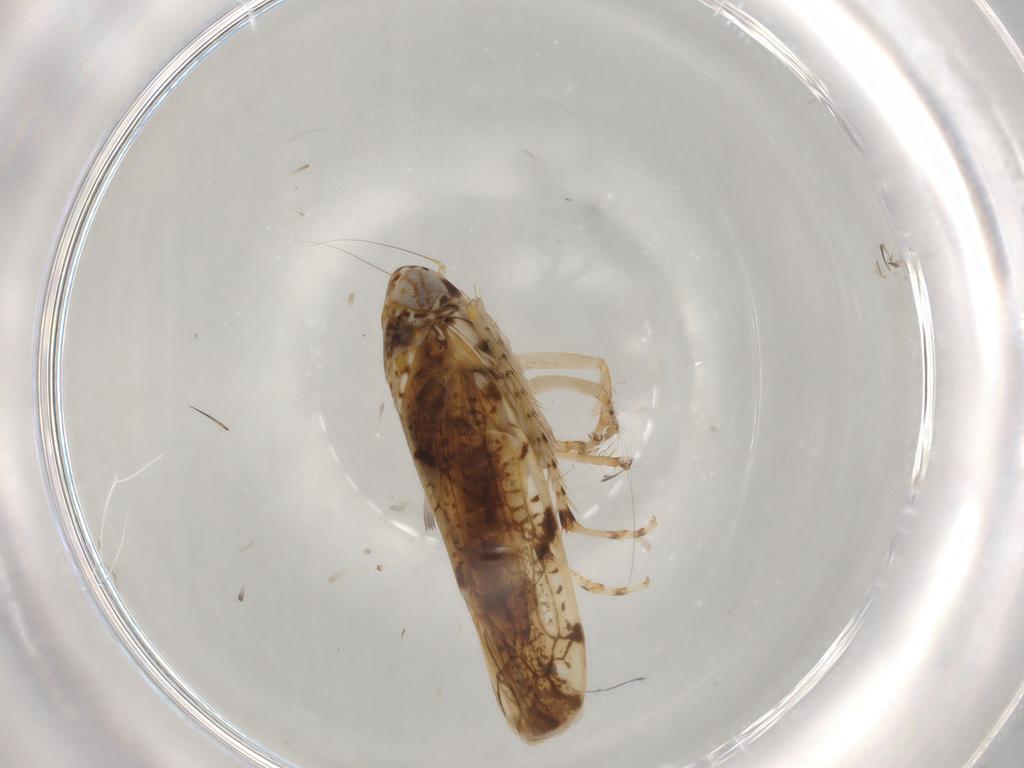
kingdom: Animalia
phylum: Arthropoda
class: Insecta
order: Hemiptera
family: Cicadellidae
